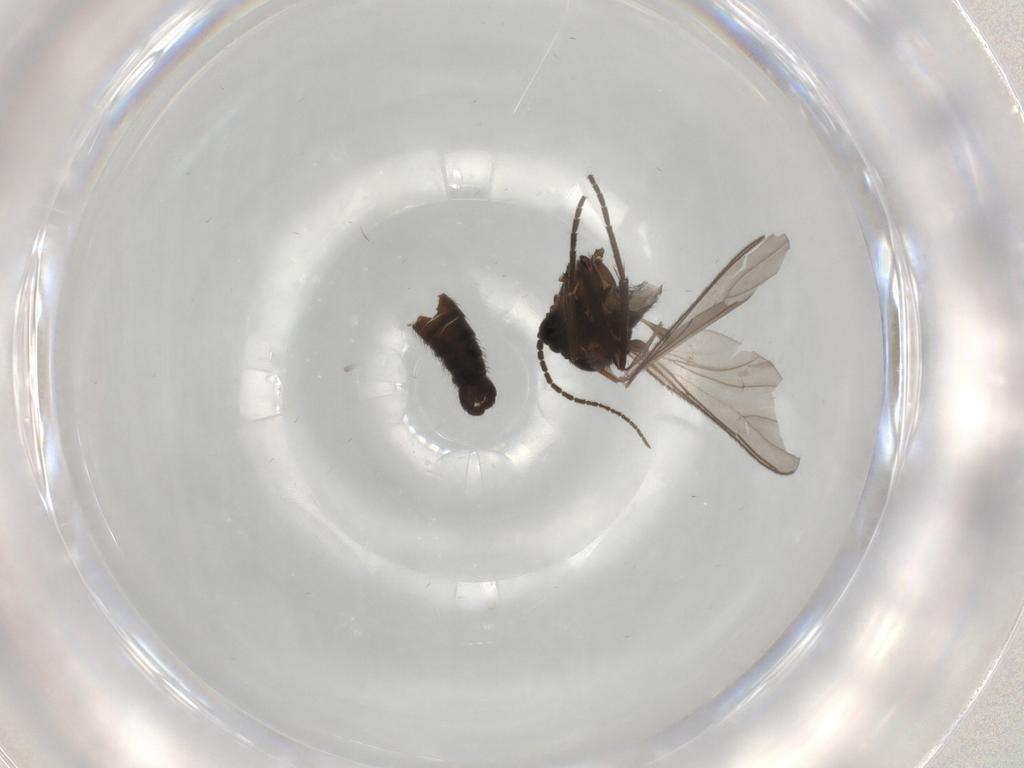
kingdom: Animalia
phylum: Arthropoda
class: Insecta
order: Diptera
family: Sciaridae
